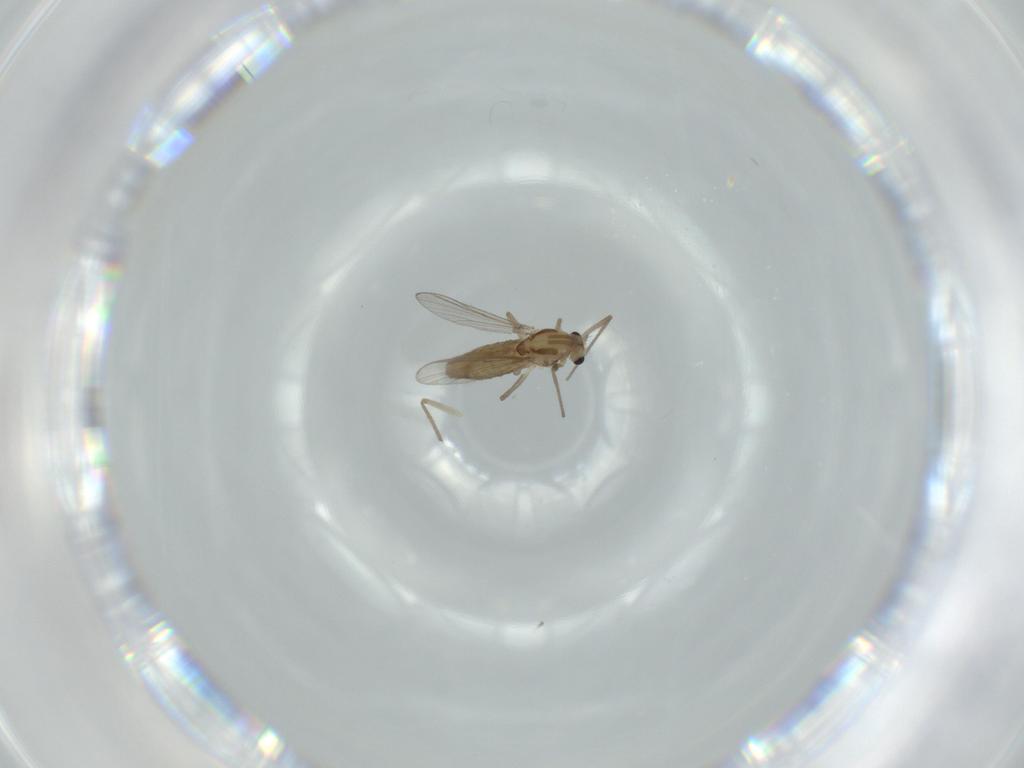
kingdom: Animalia
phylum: Arthropoda
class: Insecta
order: Diptera
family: Chironomidae
